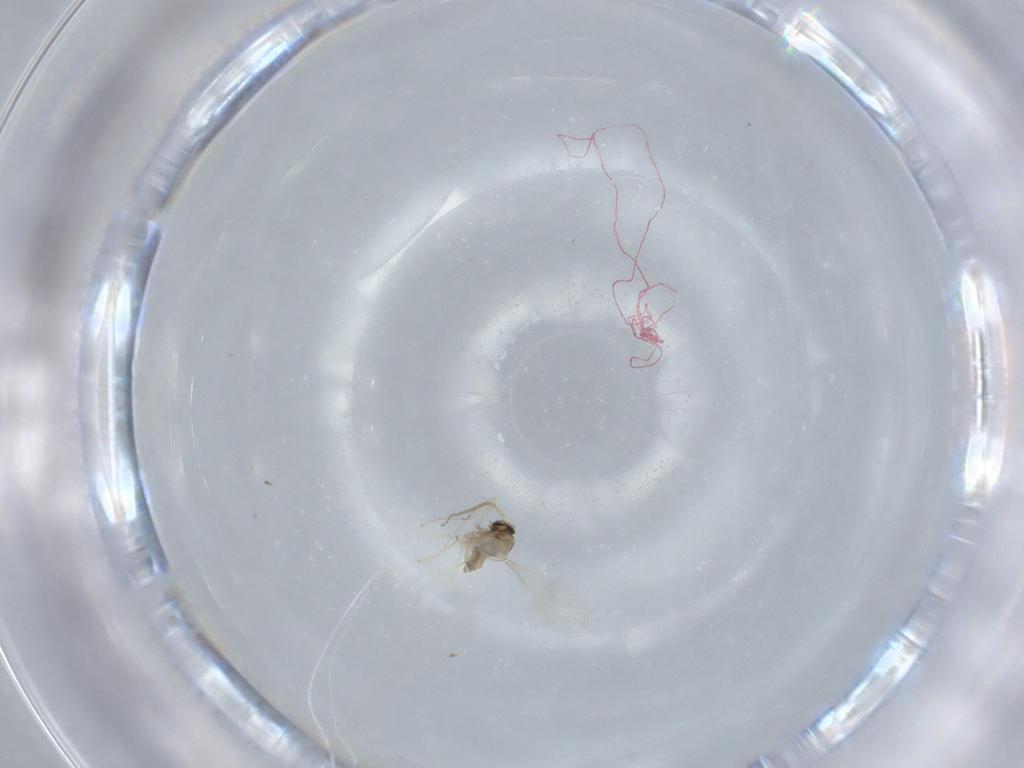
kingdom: Animalia
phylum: Arthropoda
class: Insecta
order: Diptera
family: Cecidomyiidae
